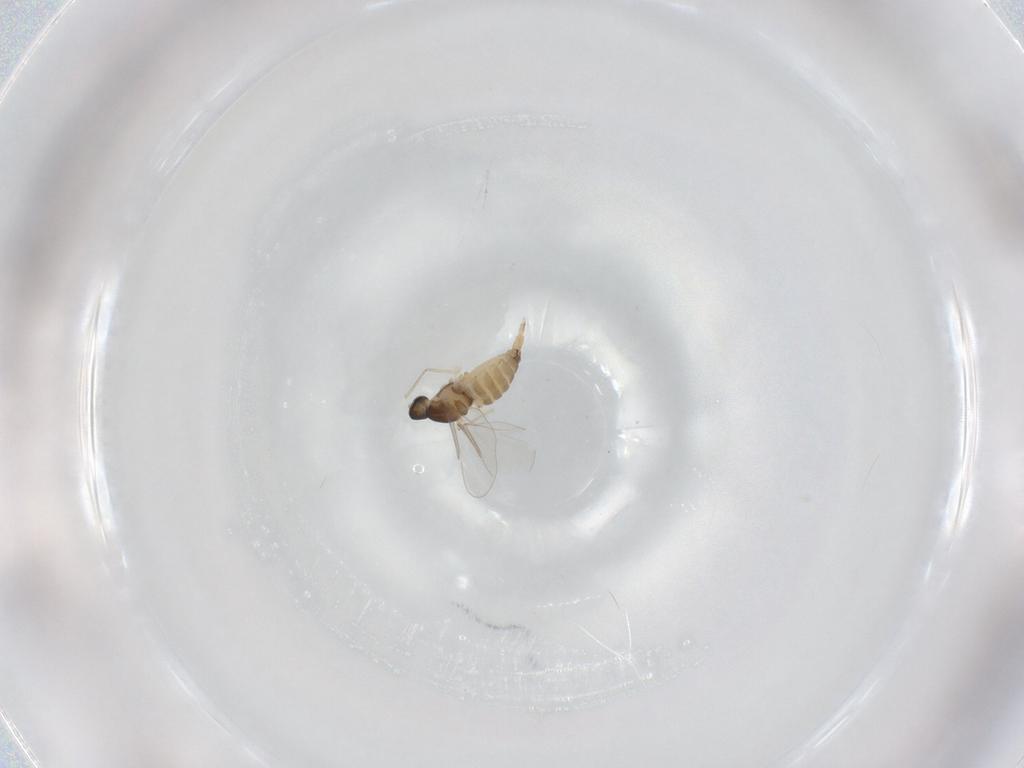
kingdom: Animalia
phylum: Arthropoda
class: Insecta
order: Diptera
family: Cecidomyiidae
